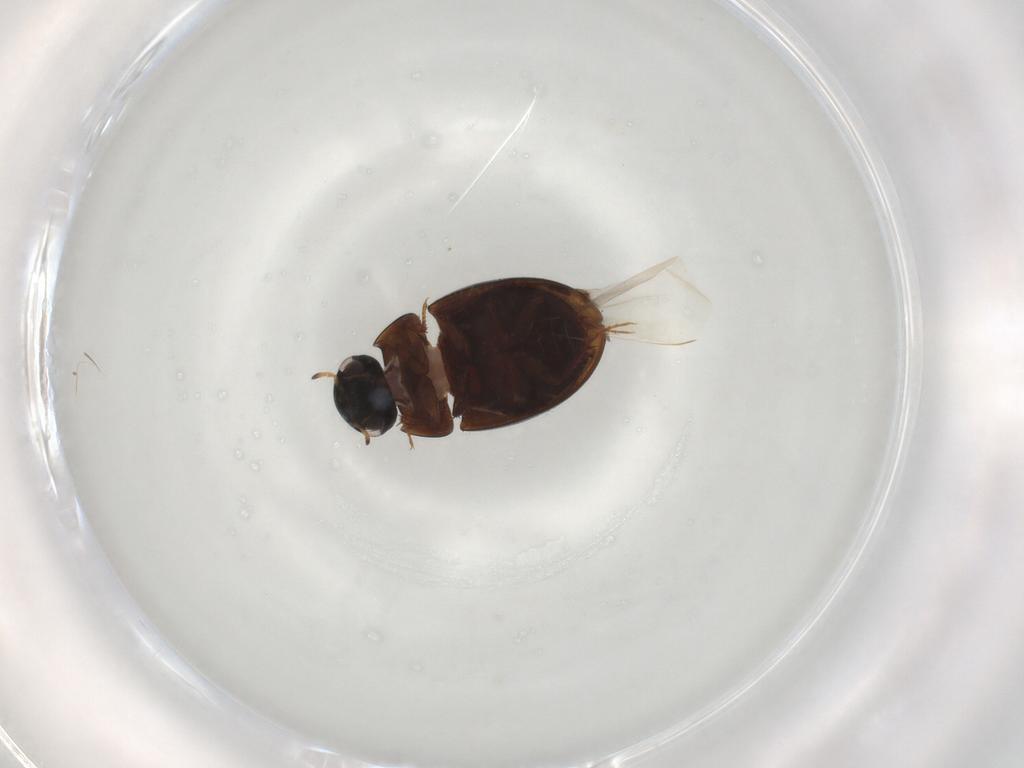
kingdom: Animalia
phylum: Arthropoda
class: Insecta
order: Coleoptera
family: Hydrophilidae
